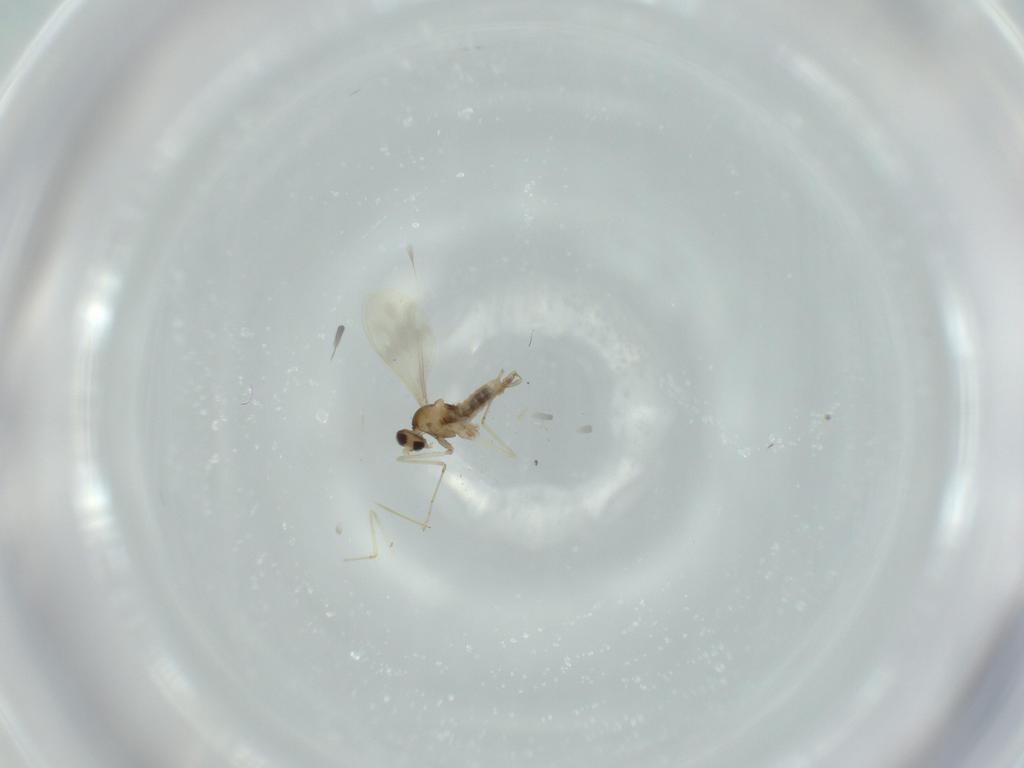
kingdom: Animalia
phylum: Arthropoda
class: Insecta
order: Diptera
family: Cecidomyiidae
